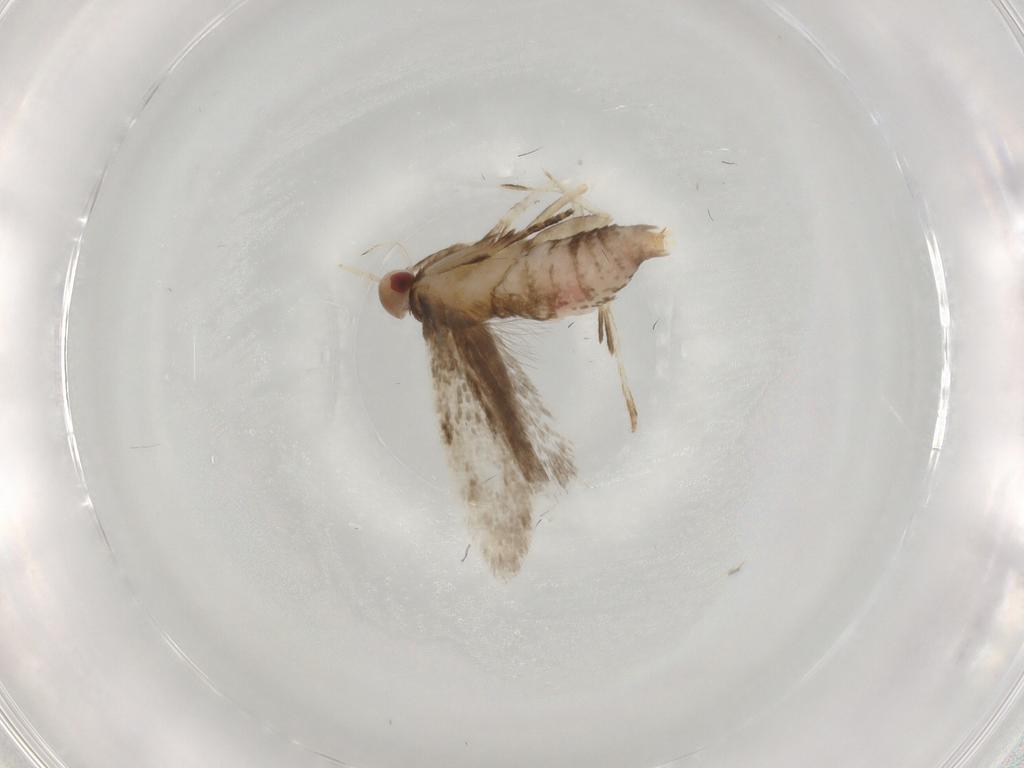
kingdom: Animalia
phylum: Arthropoda
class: Insecta
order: Lepidoptera
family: Gelechiidae
